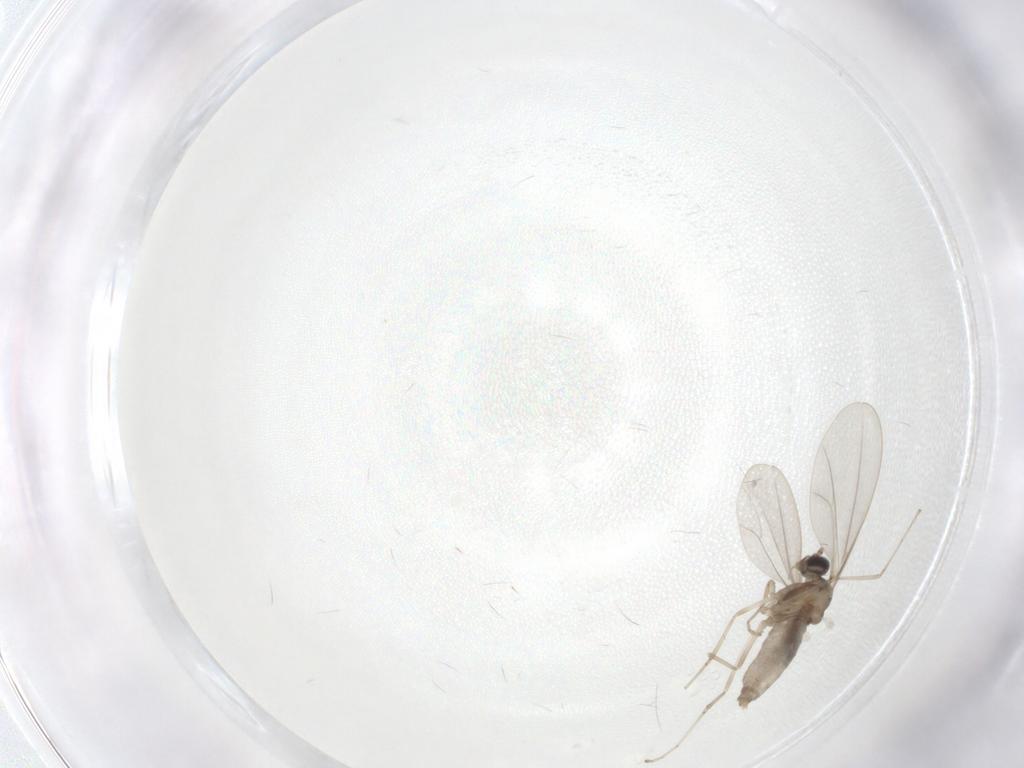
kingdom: Animalia
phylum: Arthropoda
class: Insecta
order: Diptera
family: Cecidomyiidae
